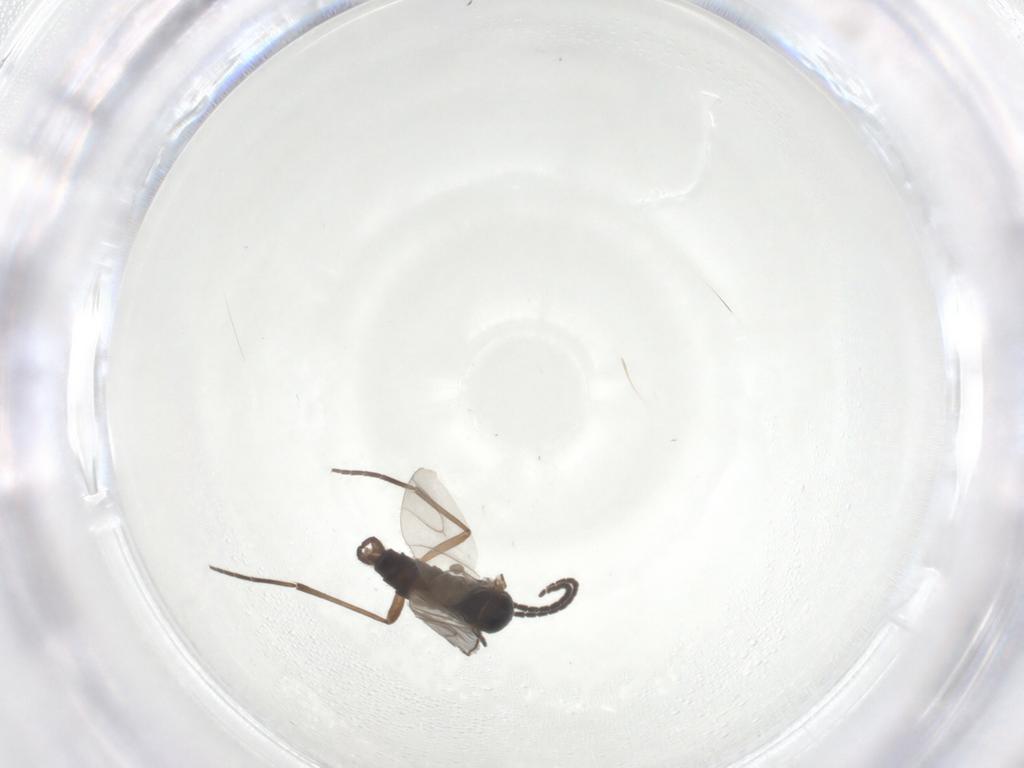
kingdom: Animalia
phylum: Arthropoda
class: Insecta
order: Diptera
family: Sciaridae
